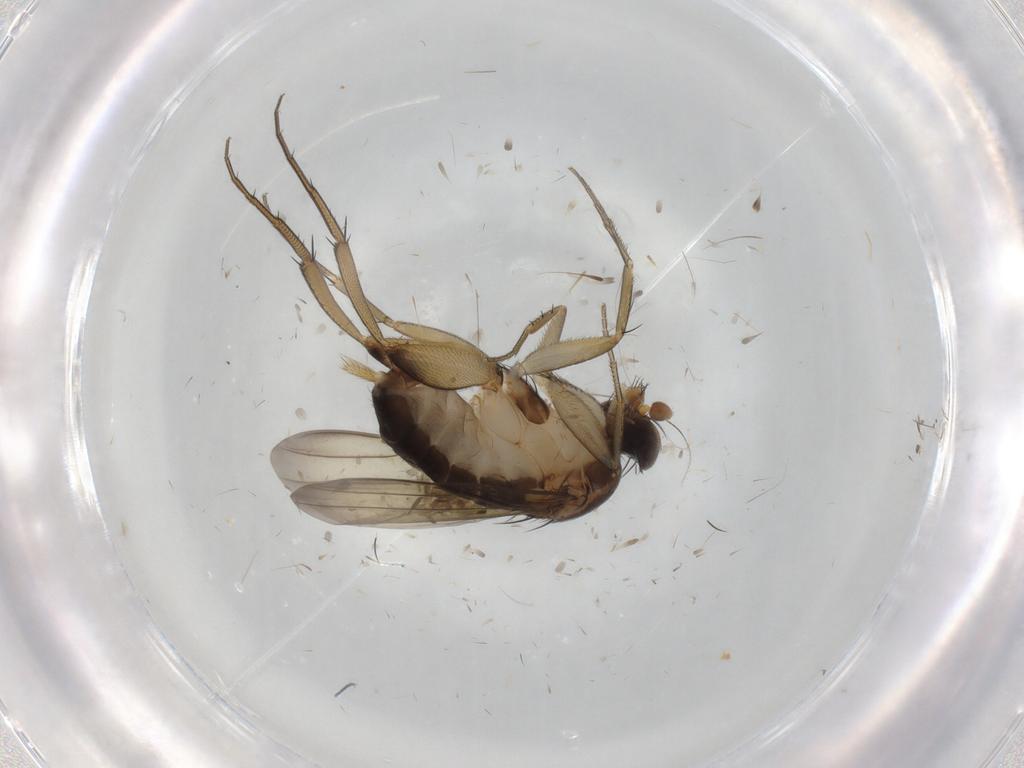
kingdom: Animalia
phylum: Arthropoda
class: Insecta
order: Diptera
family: Phoridae
